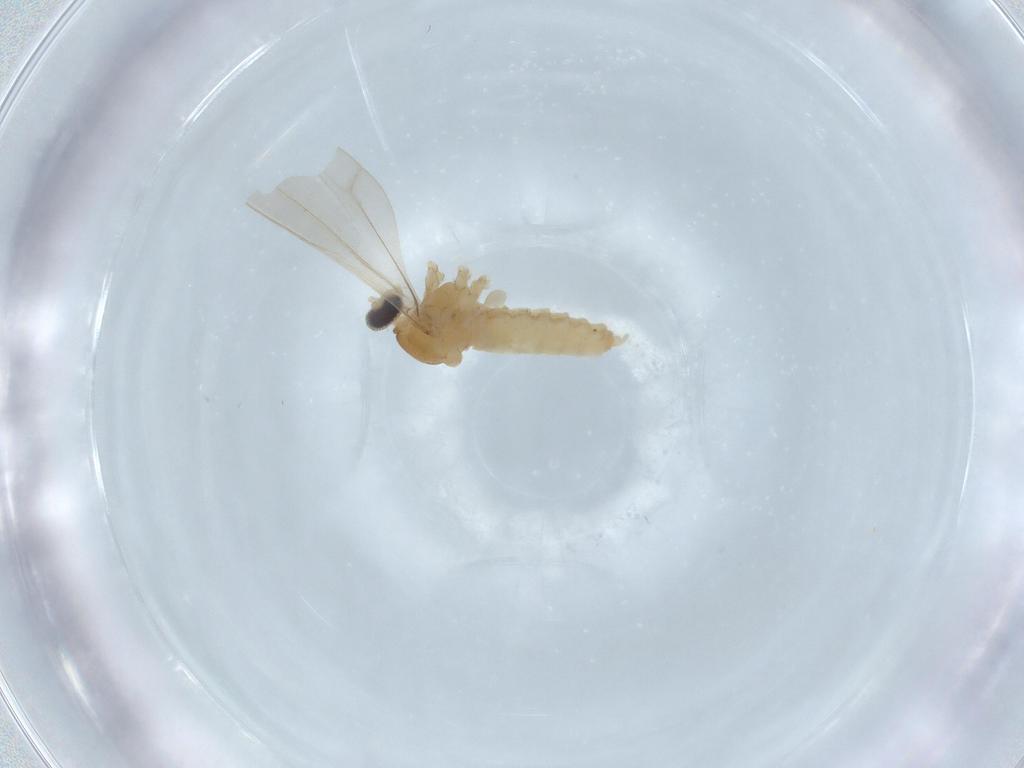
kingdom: Animalia
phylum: Arthropoda
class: Insecta
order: Diptera
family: Cecidomyiidae
